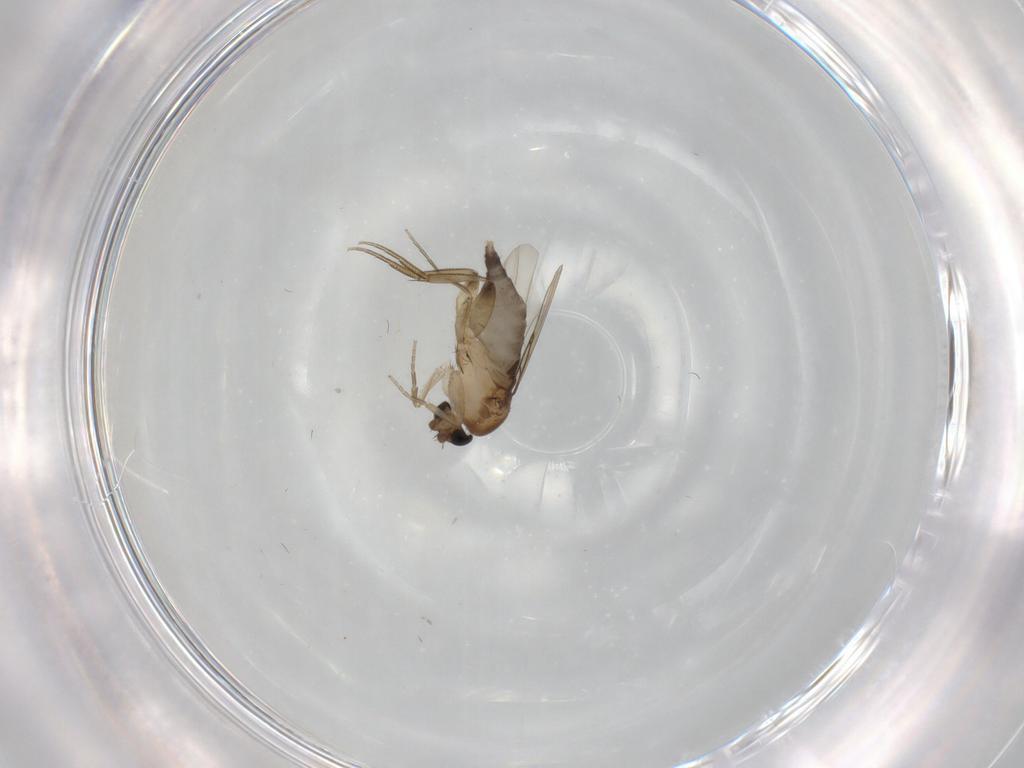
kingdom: Animalia
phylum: Arthropoda
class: Insecta
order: Diptera
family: Phoridae
